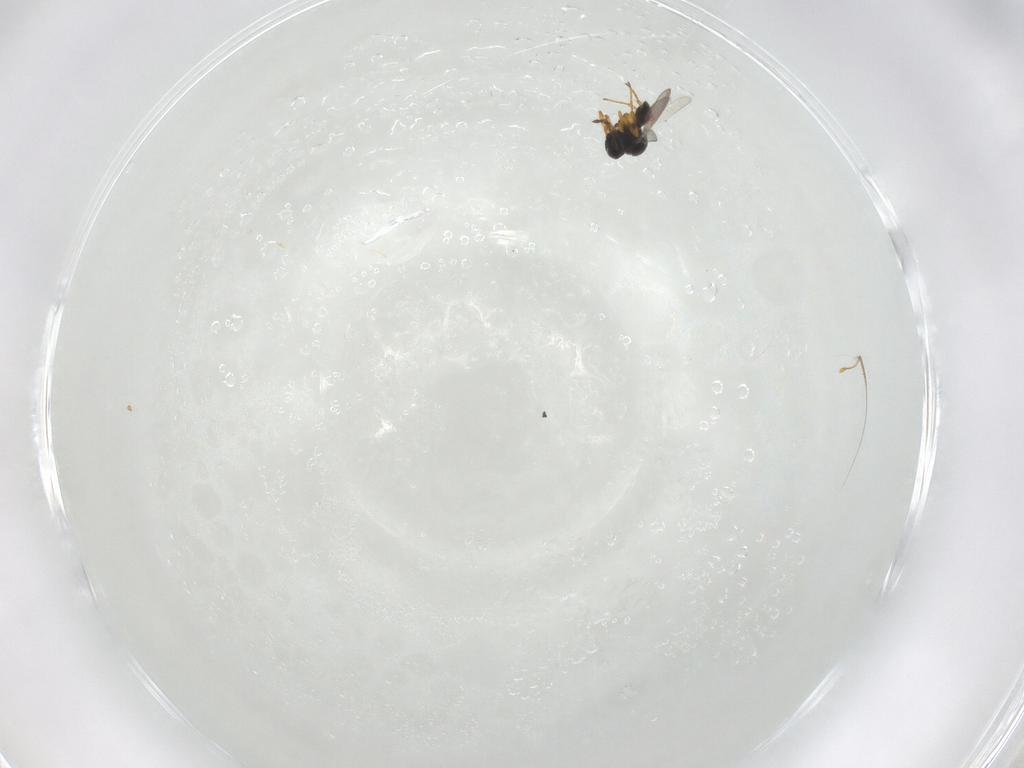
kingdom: Animalia
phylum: Arthropoda
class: Insecta
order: Hymenoptera
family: Platygastridae
